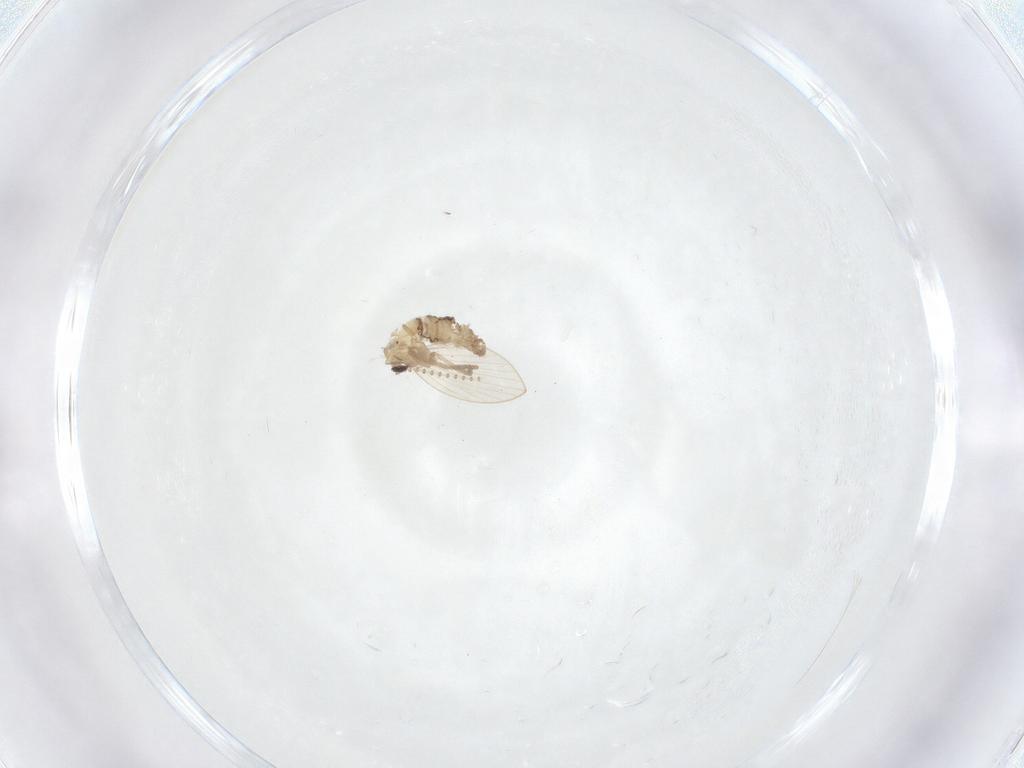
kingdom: Animalia
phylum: Arthropoda
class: Insecta
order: Diptera
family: Psychodidae
